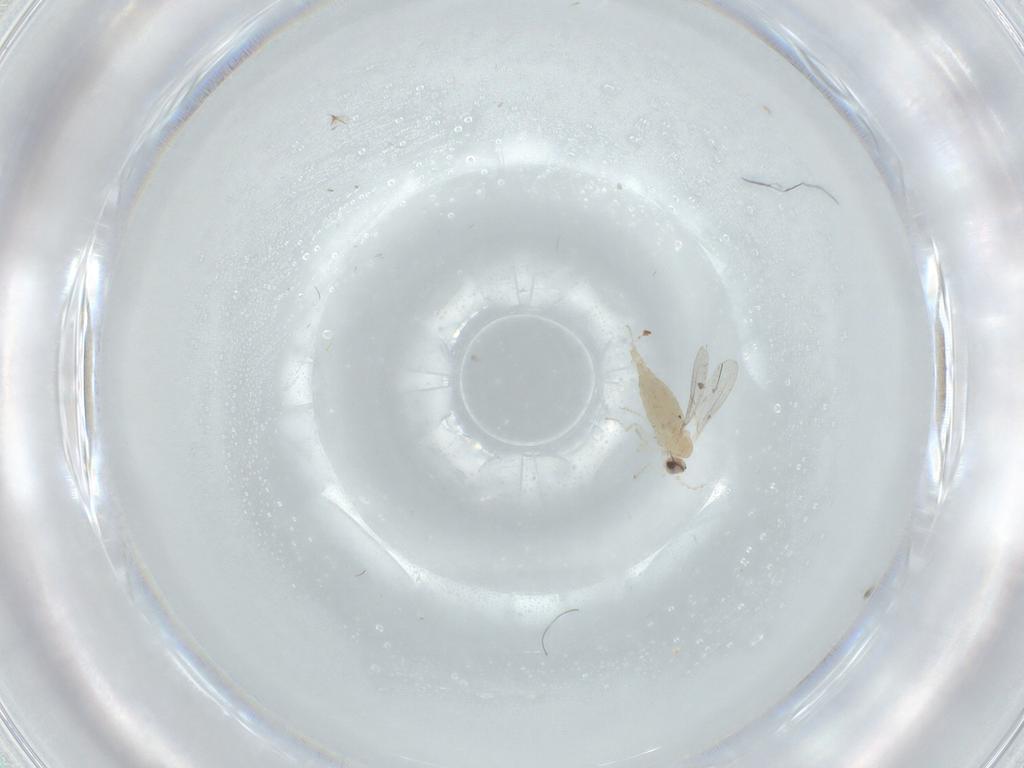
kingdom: Animalia
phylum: Arthropoda
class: Insecta
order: Diptera
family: Cecidomyiidae
